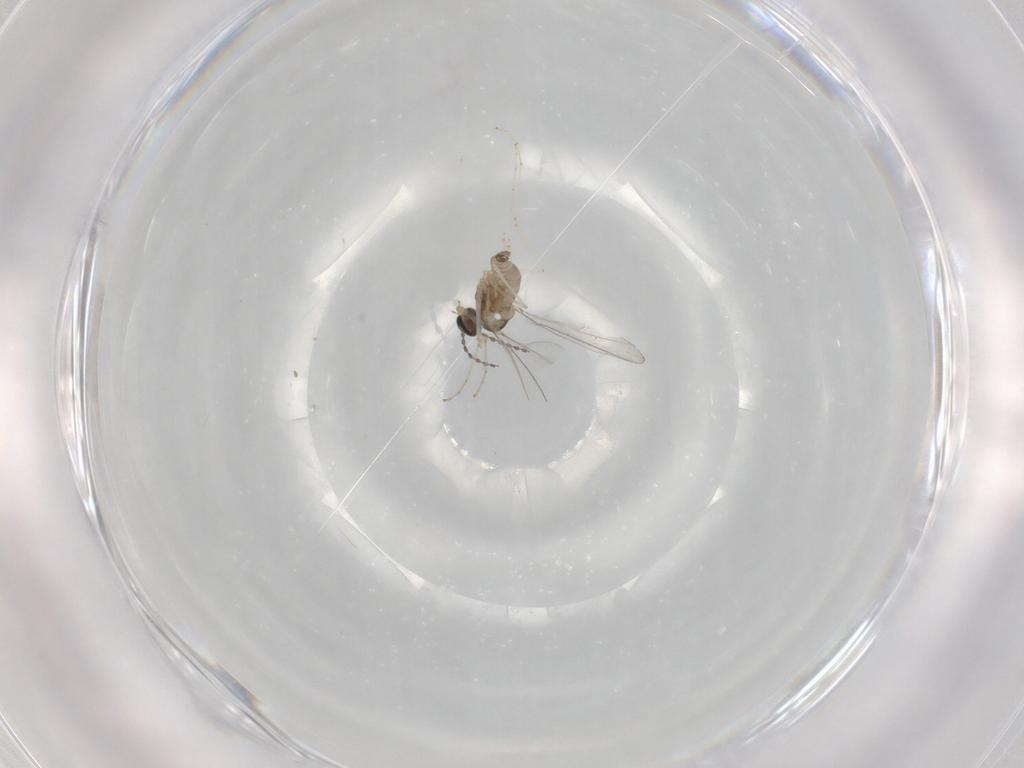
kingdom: Animalia
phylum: Arthropoda
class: Insecta
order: Diptera
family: Cecidomyiidae
